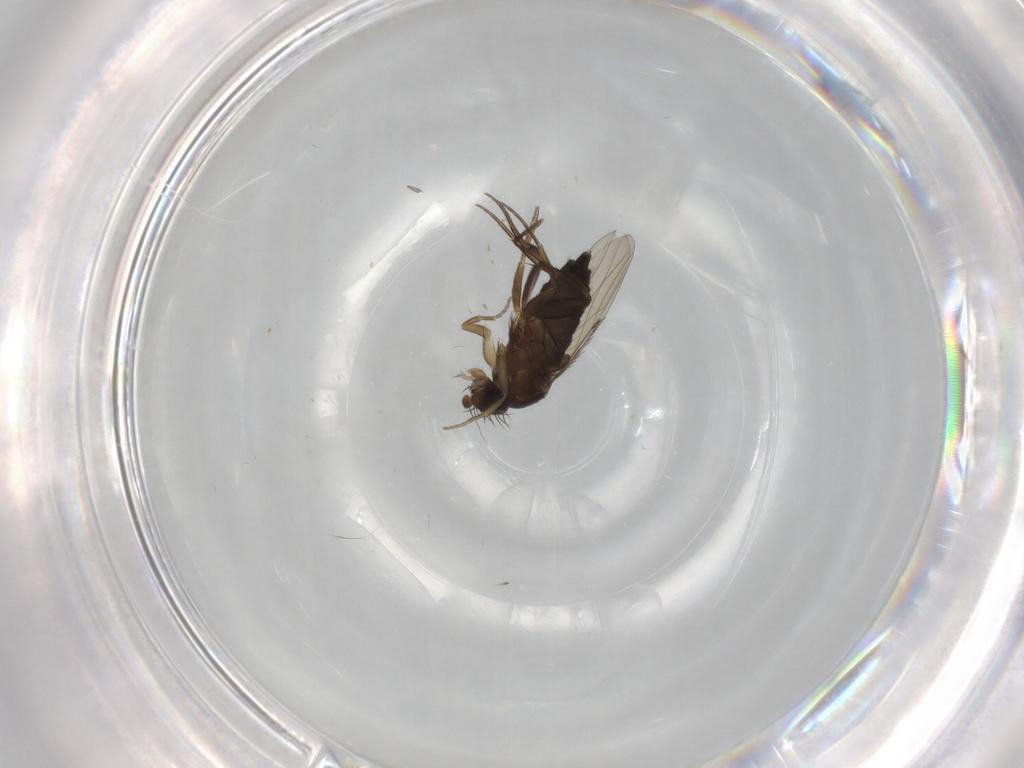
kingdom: Animalia
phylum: Arthropoda
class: Insecta
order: Diptera
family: Phoridae
